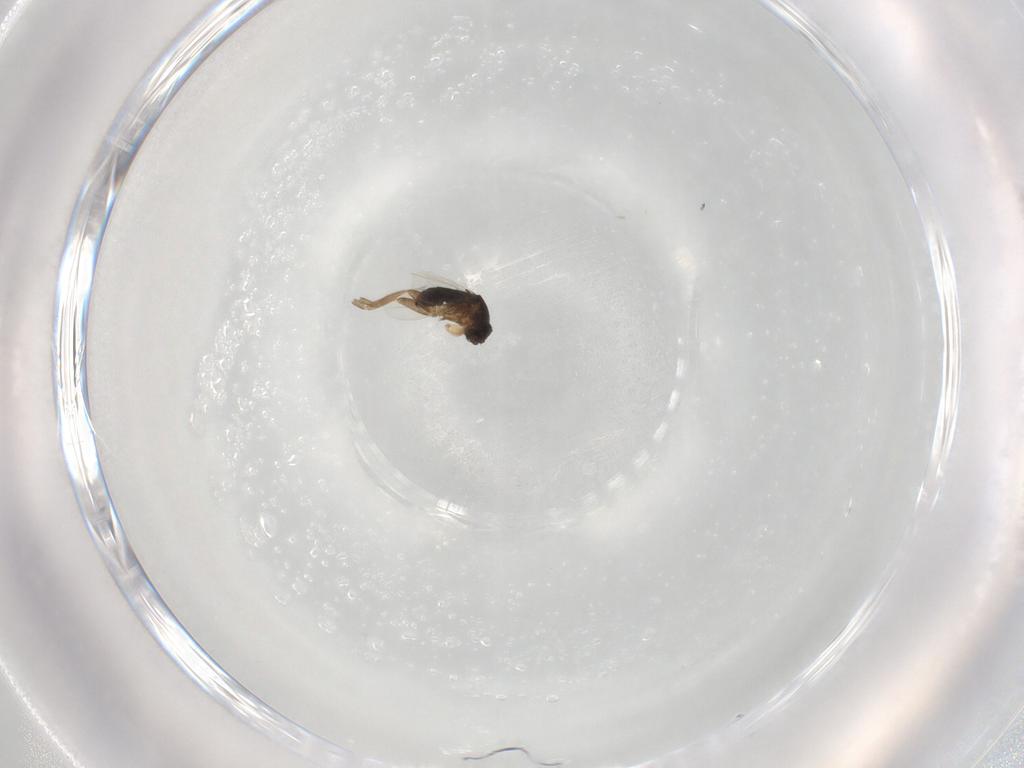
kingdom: Animalia
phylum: Arthropoda
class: Insecta
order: Diptera
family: Phoridae
